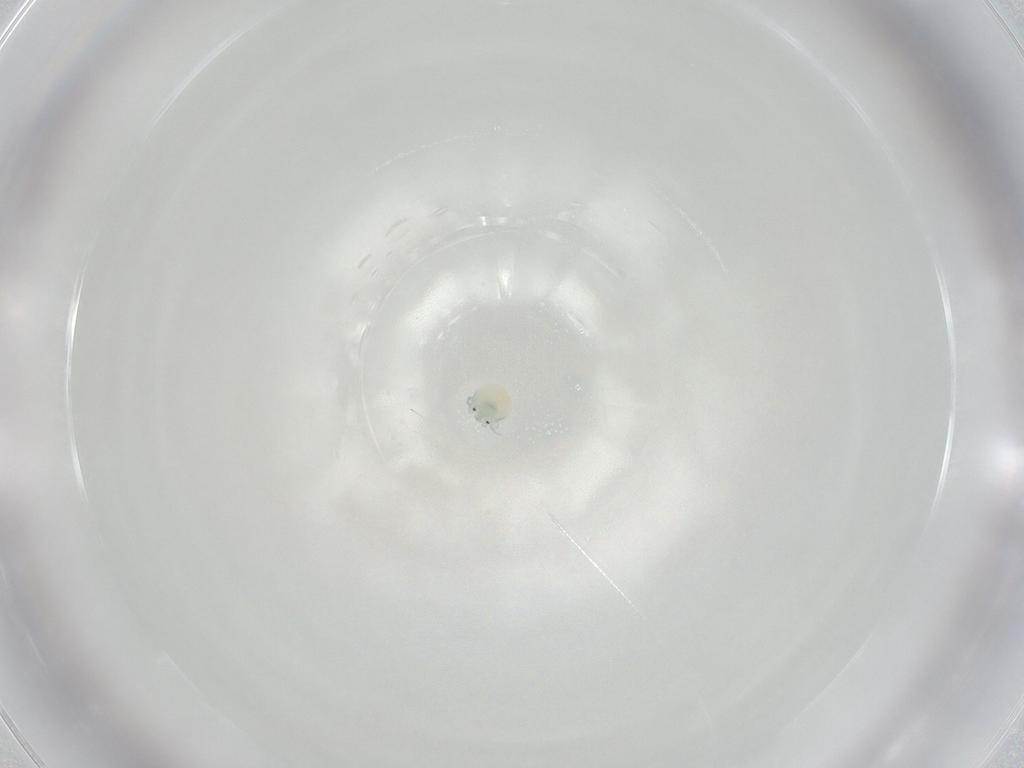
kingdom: Animalia
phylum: Arthropoda
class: Arachnida
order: Trombidiformes
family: Arrenuridae
